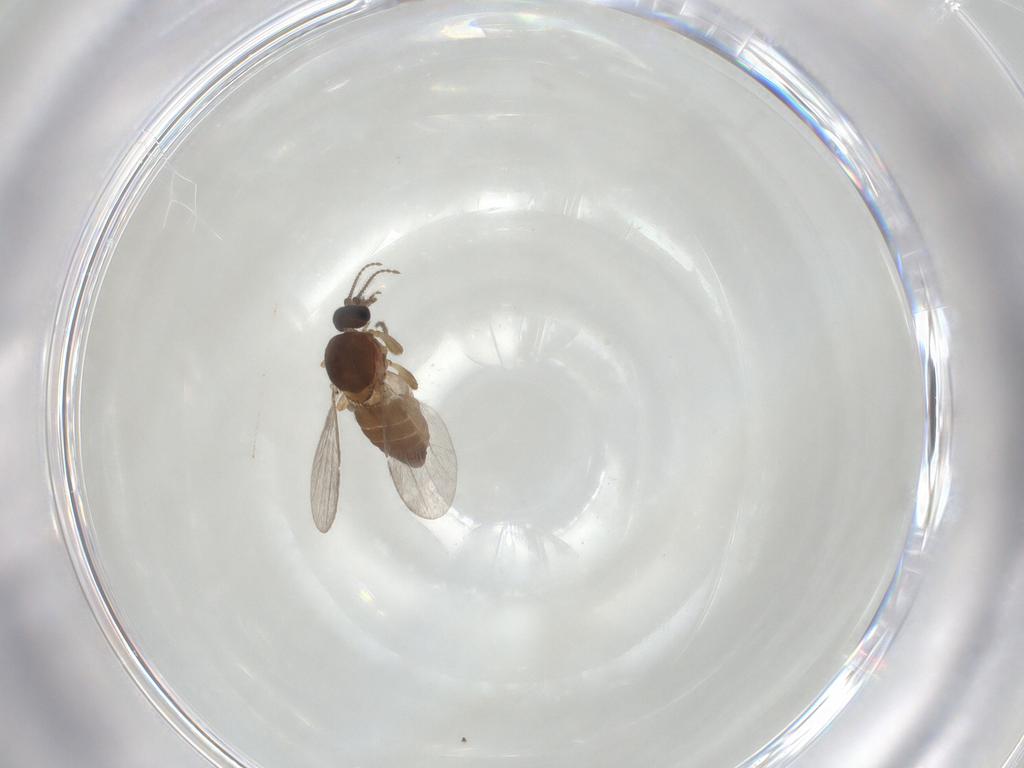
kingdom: Animalia
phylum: Arthropoda
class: Insecta
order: Diptera
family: Ceratopogonidae
